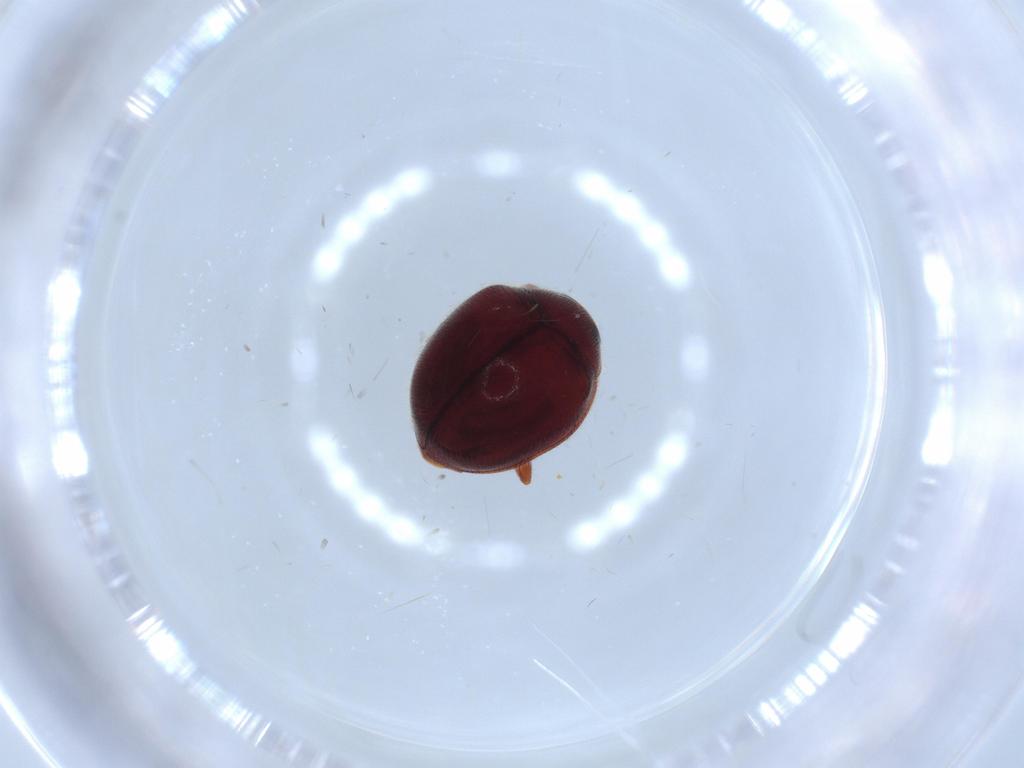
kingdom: Animalia
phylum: Arthropoda
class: Insecta
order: Coleoptera
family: Coccinellidae
